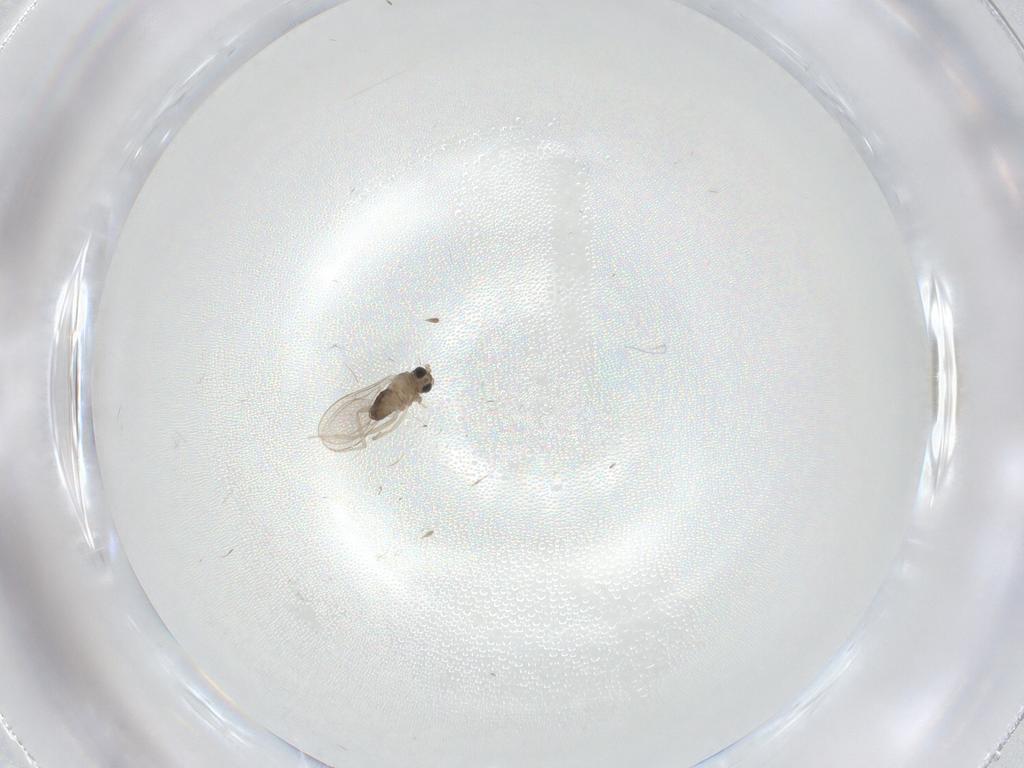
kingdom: Animalia
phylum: Arthropoda
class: Insecta
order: Diptera
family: Cecidomyiidae
